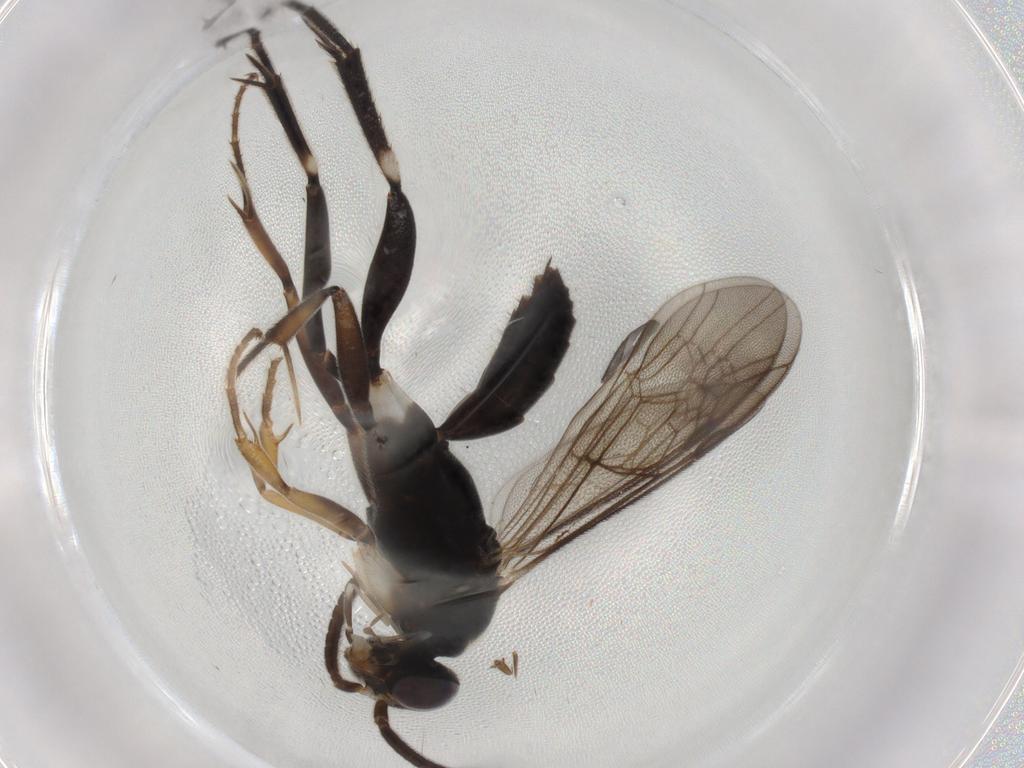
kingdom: Animalia
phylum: Arthropoda
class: Insecta
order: Hymenoptera
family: Pompilidae
